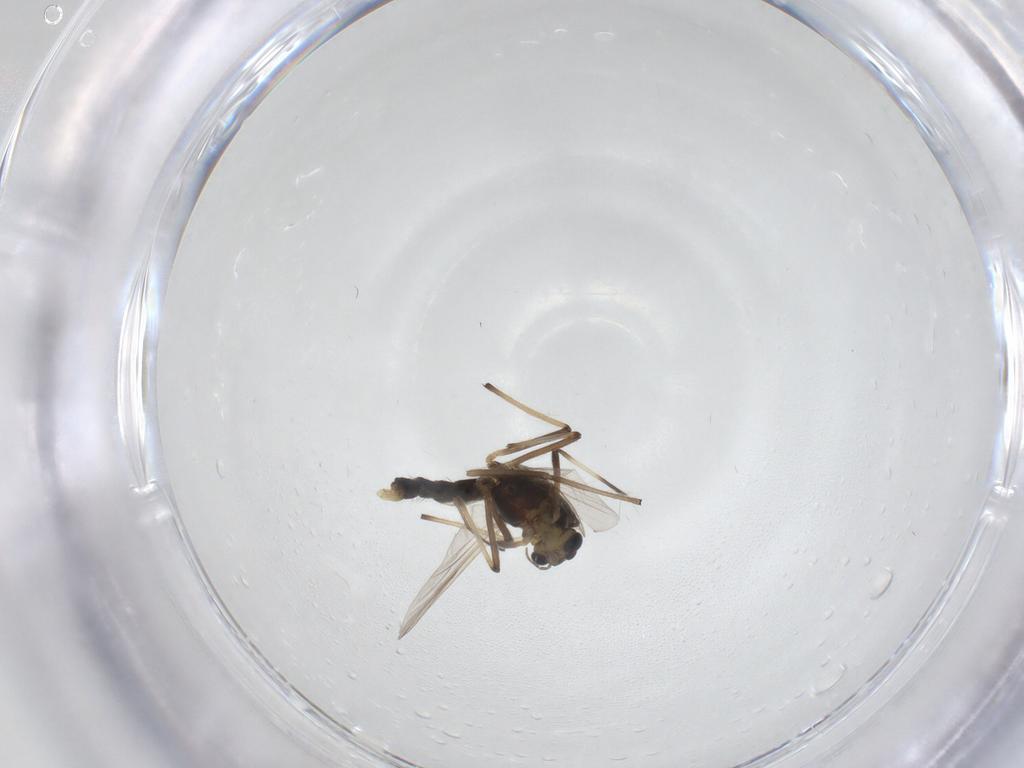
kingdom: Animalia
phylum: Arthropoda
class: Insecta
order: Diptera
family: Chironomidae
